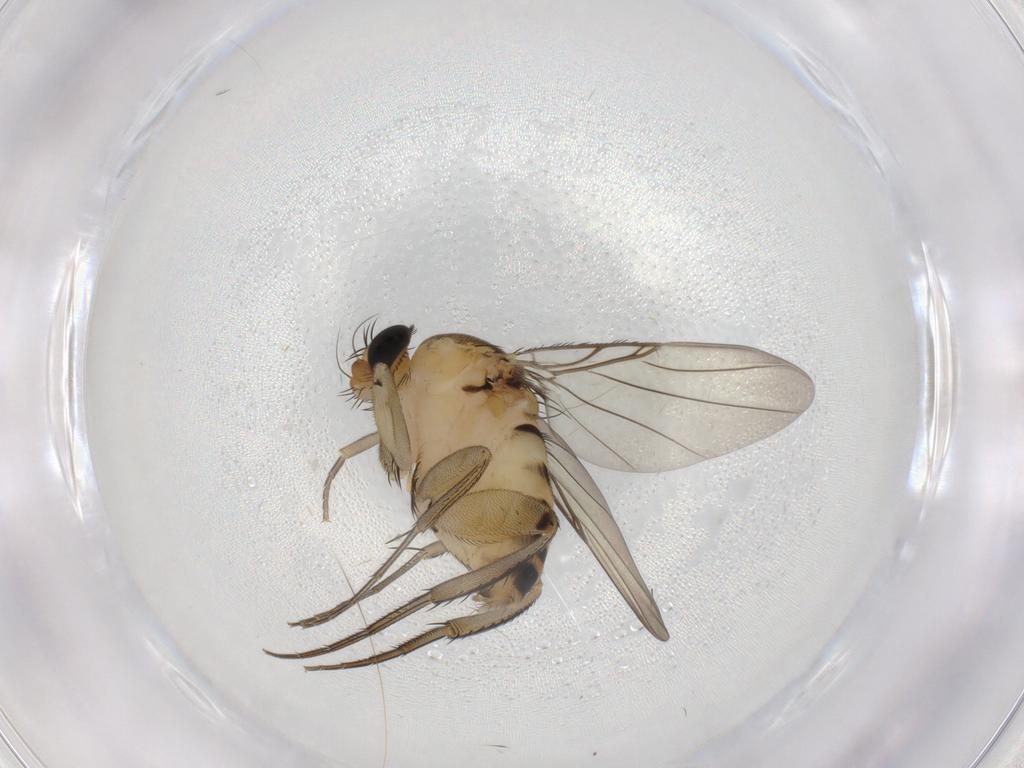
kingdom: Animalia
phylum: Arthropoda
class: Insecta
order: Diptera
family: Phoridae
